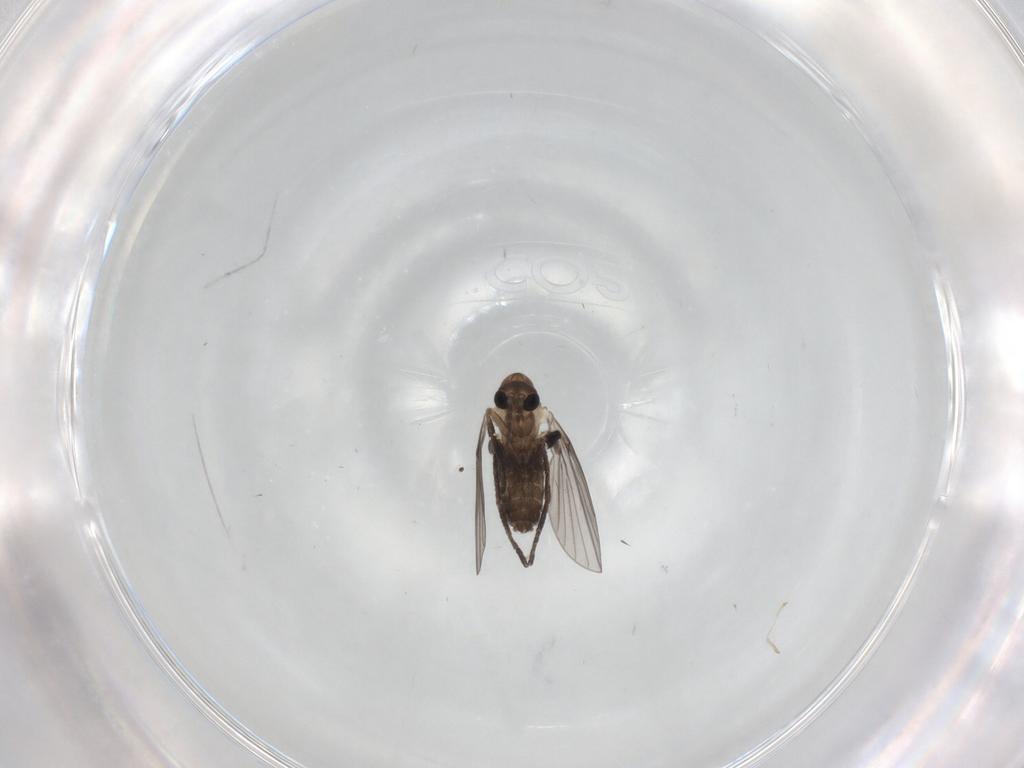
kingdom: Animalia
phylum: Arthropoda
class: Insecta
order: Diptera
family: Psychodidae
